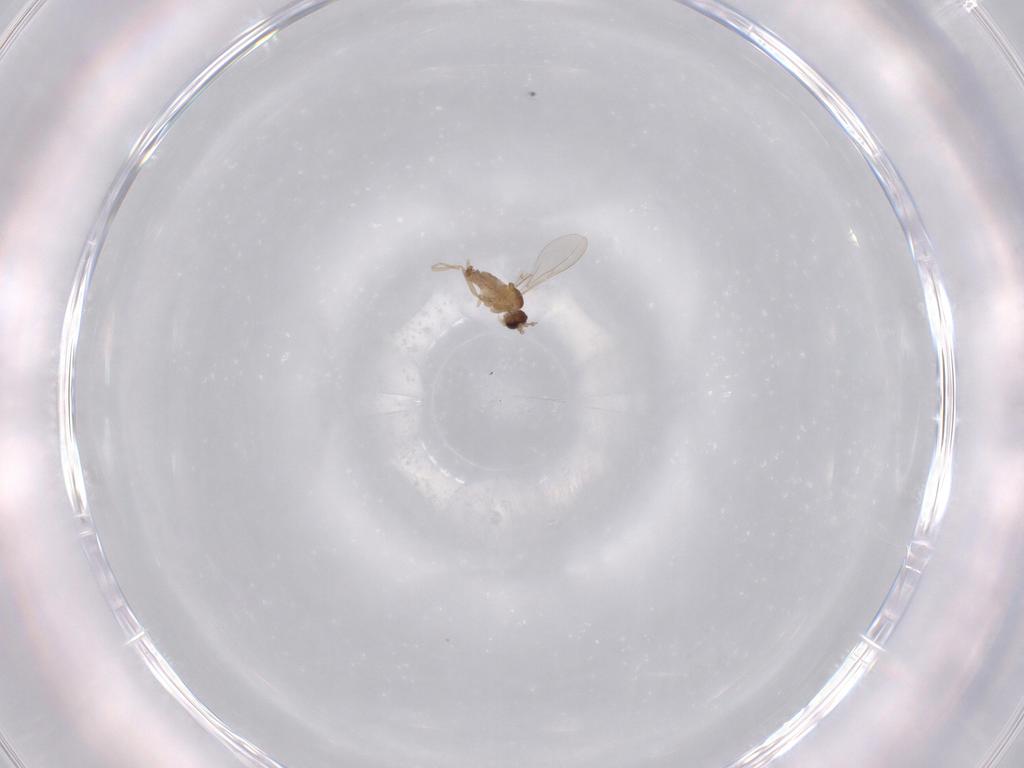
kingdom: Animalia
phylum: Arthropoda
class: Insecta
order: Diptera
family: Cecidomyiidae
